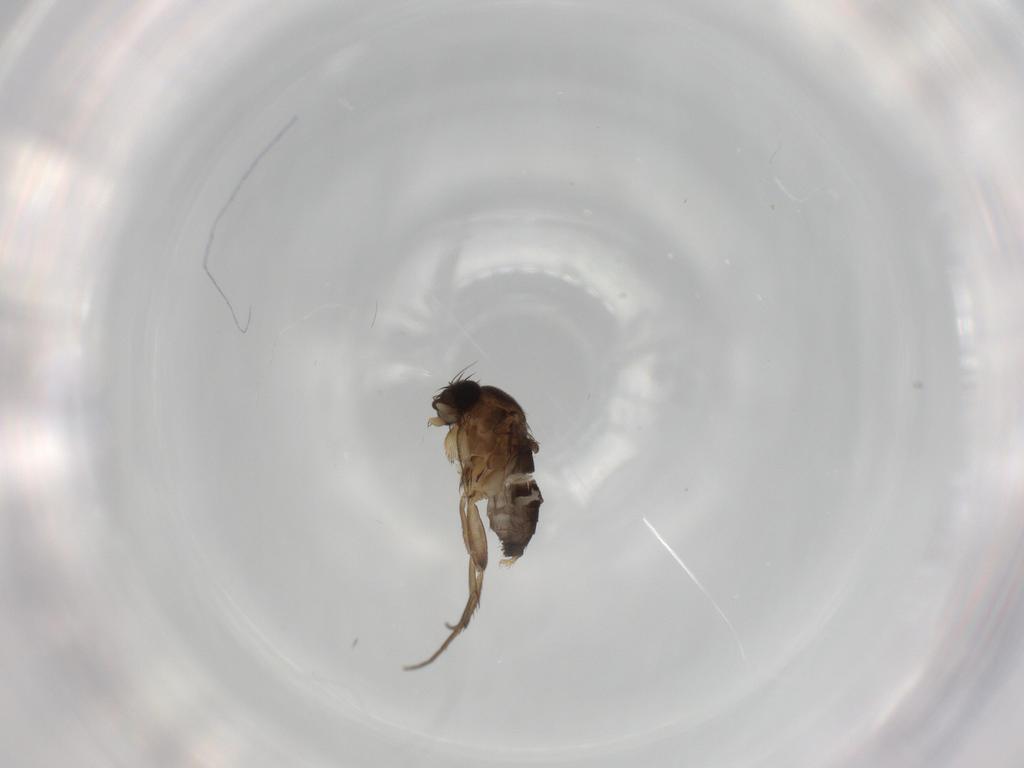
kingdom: Animalia
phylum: Arthropoda
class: Insecta
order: Diptera
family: Phoridae
